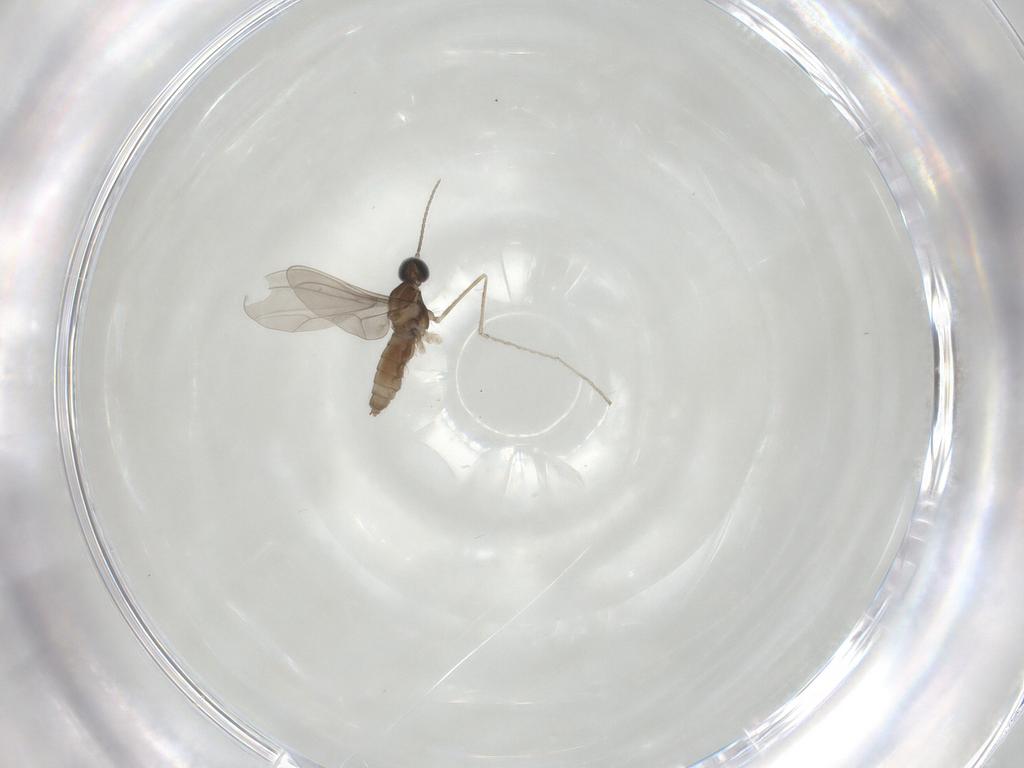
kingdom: Animalia
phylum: Arthropoda
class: Insecta
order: Diptera
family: Cecidomyiidae
